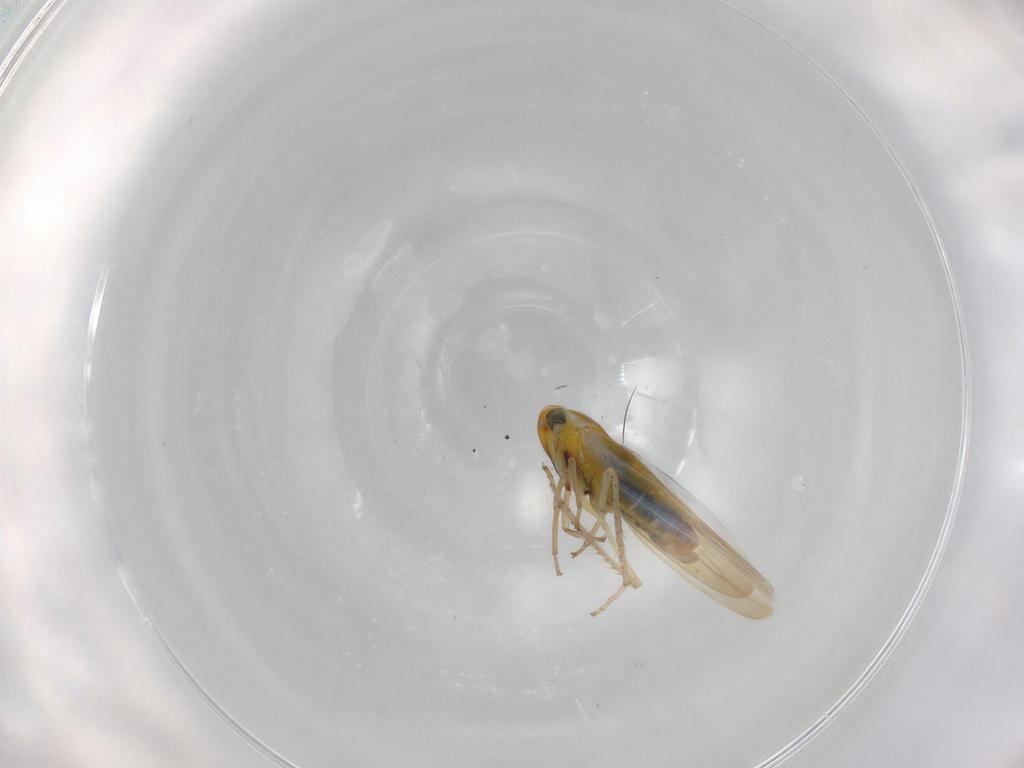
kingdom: Animalia
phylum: Arthropoda
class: Insecta
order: Hemiptera
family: Cicadellidae
